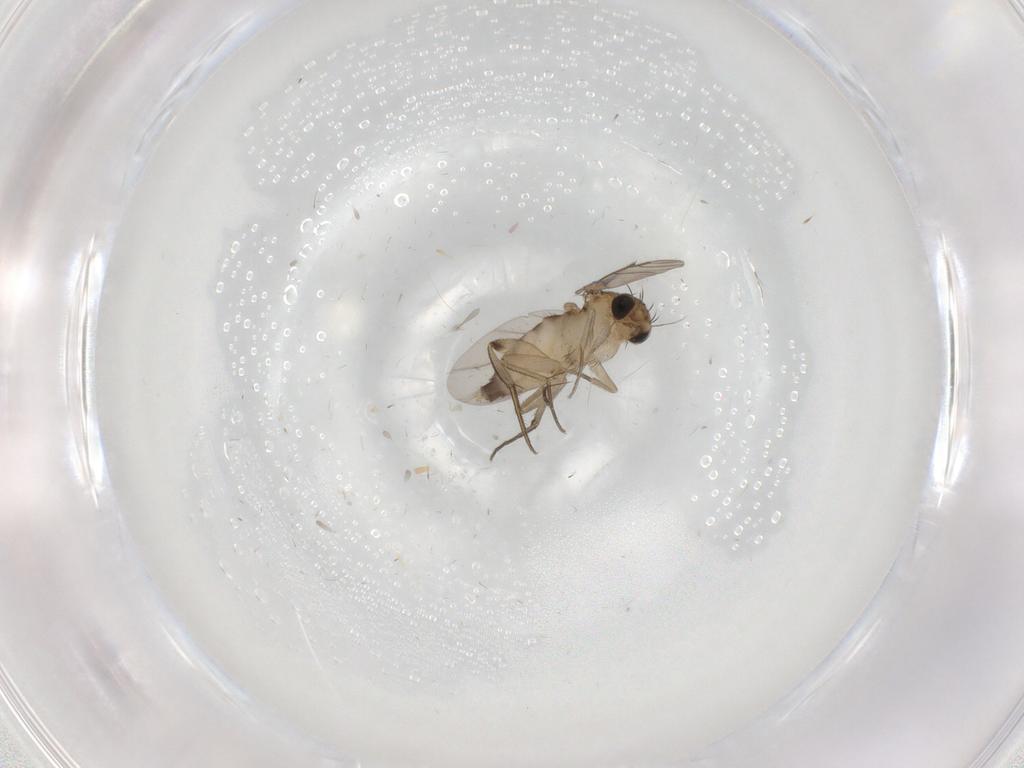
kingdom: Animalia
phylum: Arthropoda
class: Insecta
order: Diptera
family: Phoridae
